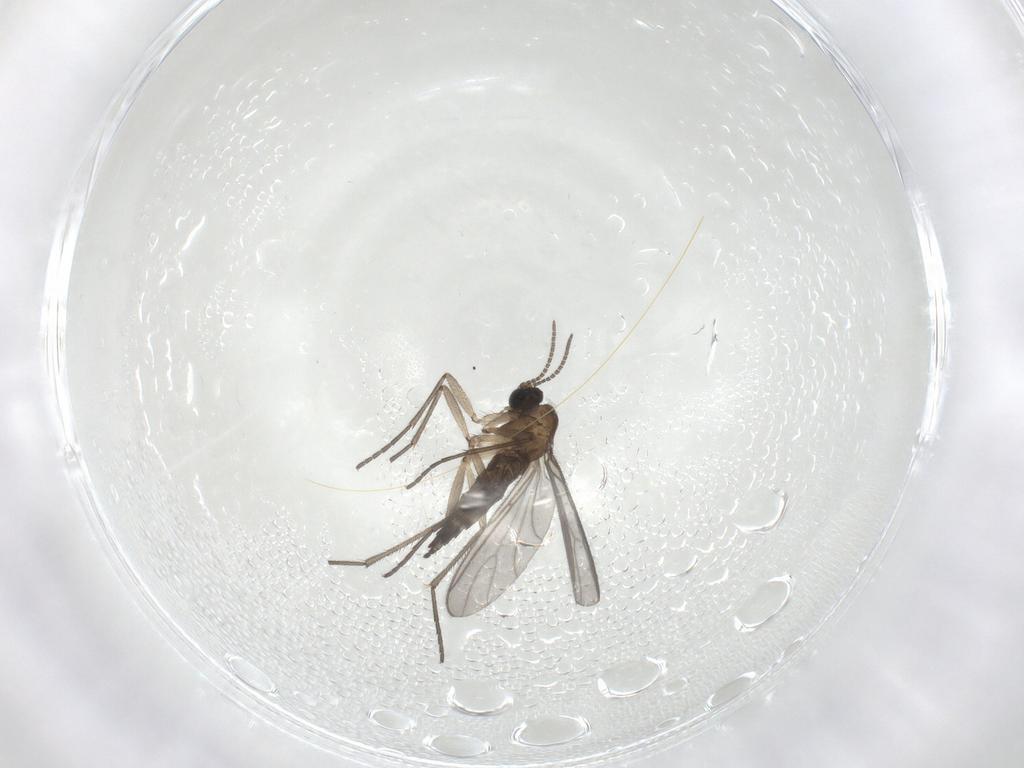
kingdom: Animalia
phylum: Arthropoda
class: Insecta
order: Diptera
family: Sciaridae
